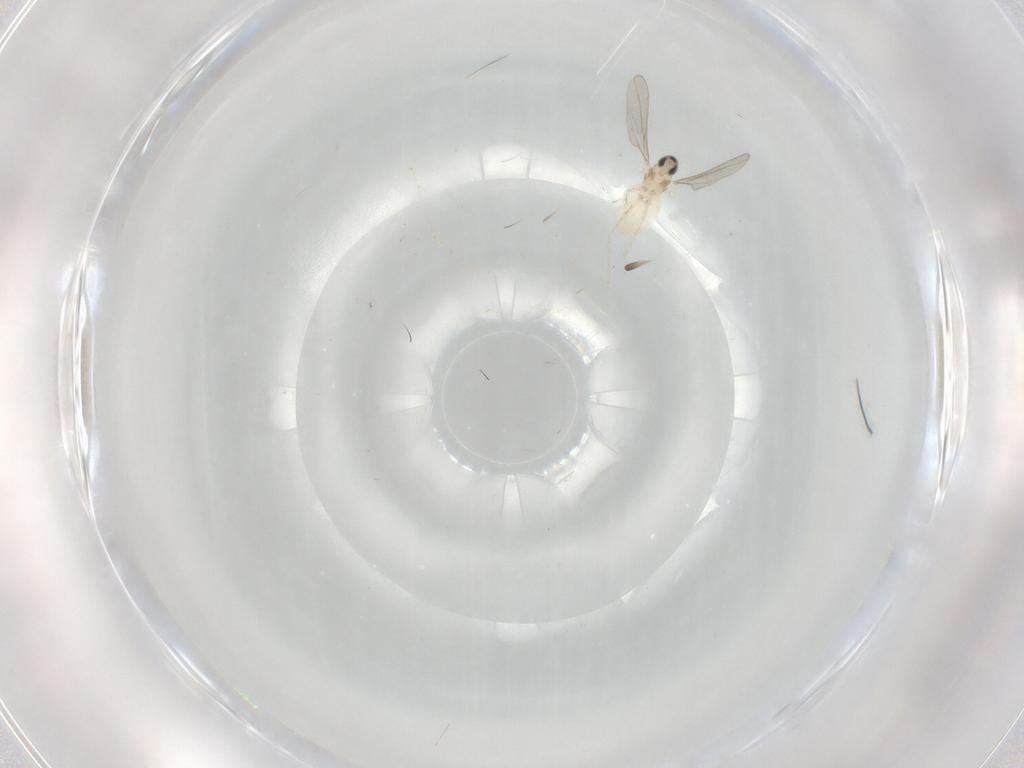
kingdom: Animalia
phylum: Arthropoda
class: Insecta
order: Diptera
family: Cecidomyiidae
